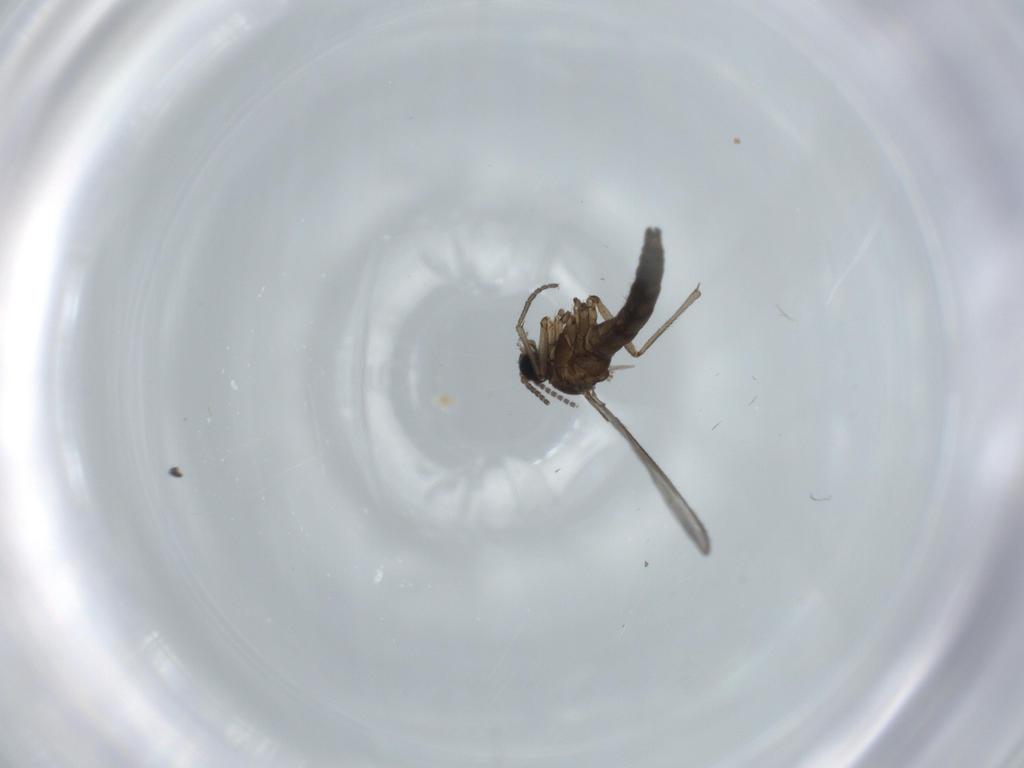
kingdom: Animalia
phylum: Arthropoda
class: Insecta
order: Diptera
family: Sciaridae
